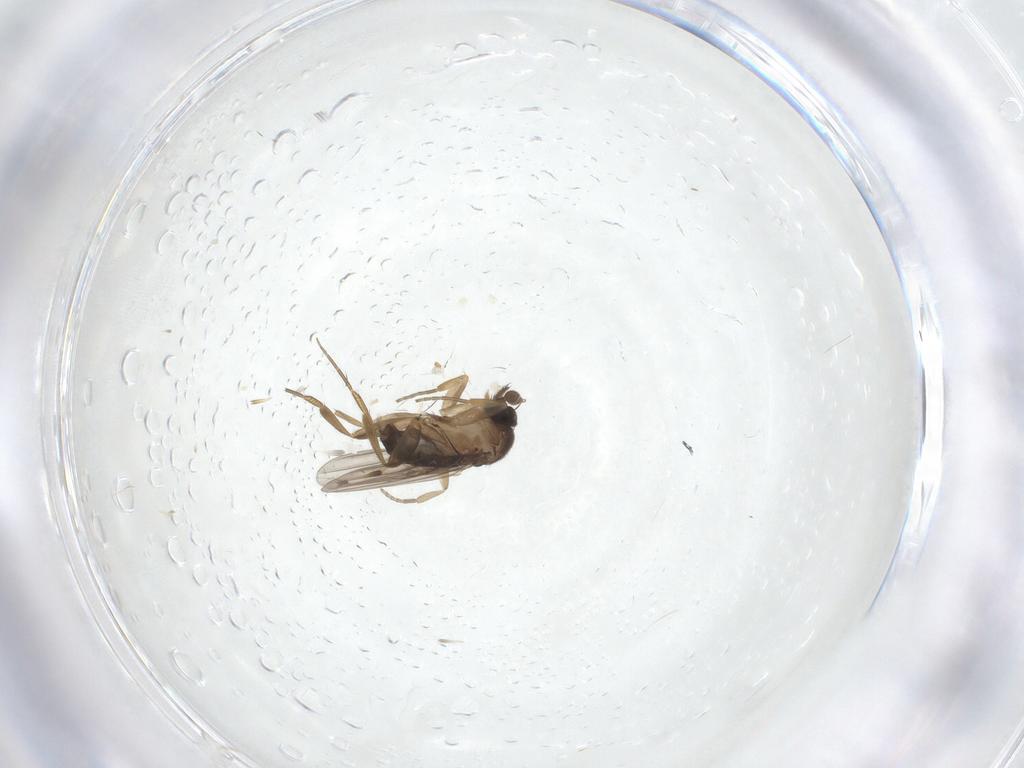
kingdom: Animalia
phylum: Arthropoda
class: Insecta
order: Diptera
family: Phoridae
